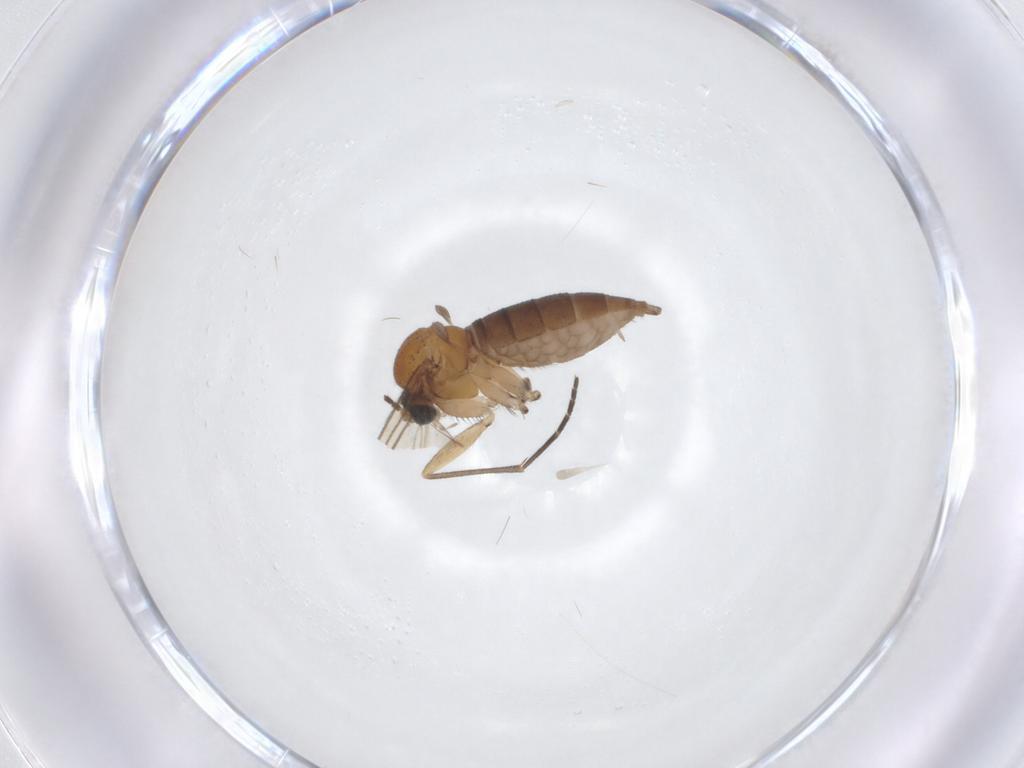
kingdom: Animalia
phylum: Arthropoda
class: Insecta
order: Diptera
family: Sciaridae
